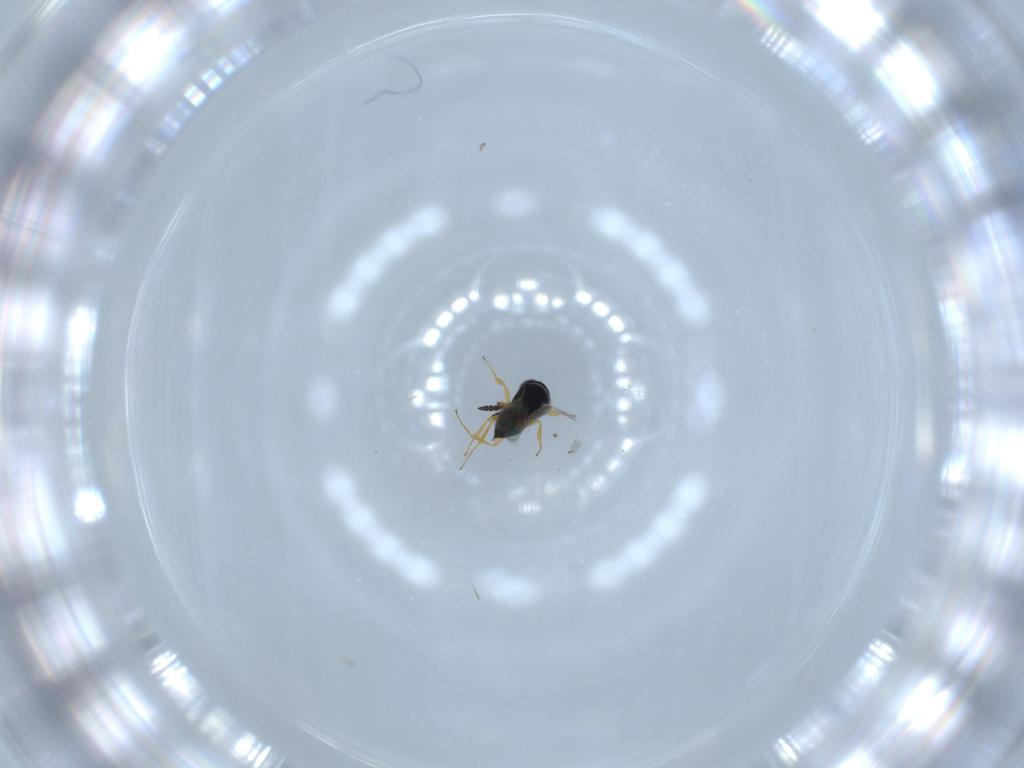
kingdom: Animalia
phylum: Arthropoda
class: Insecta
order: Hymenoptera
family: Scelionidae
